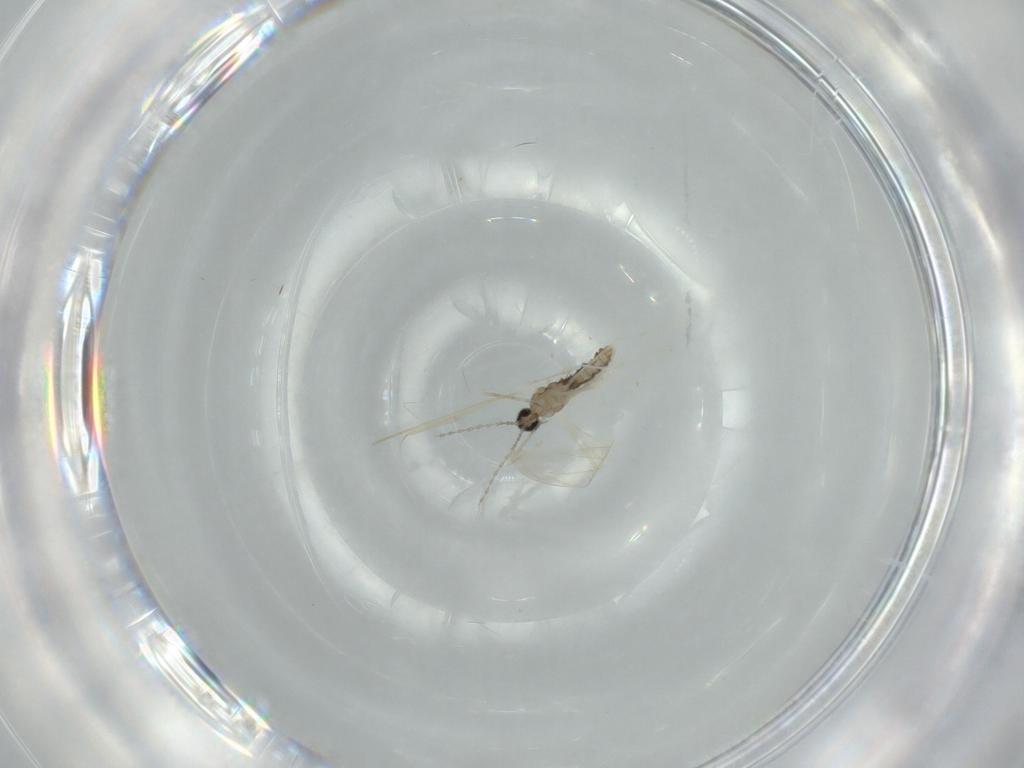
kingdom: Animalia
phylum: Arthropoda
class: Insecta
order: Diptera
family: Cecidomyiidae
